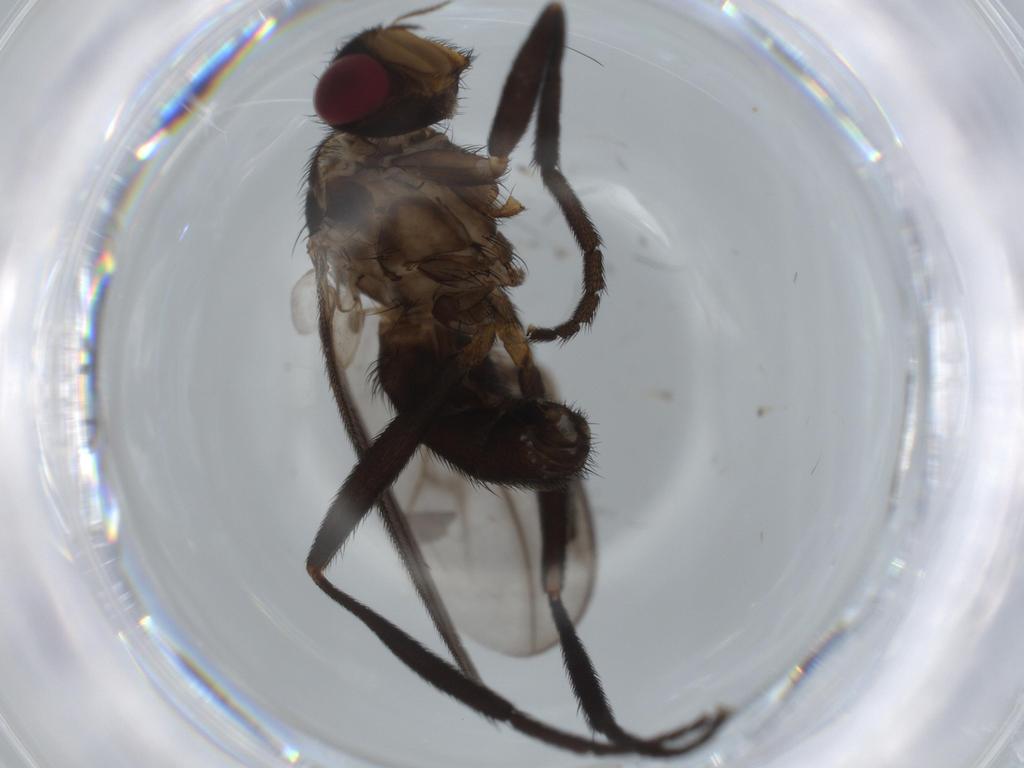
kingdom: Animalia
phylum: Arthropoda
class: Insecta
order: Diptera
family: Calliphoridae
